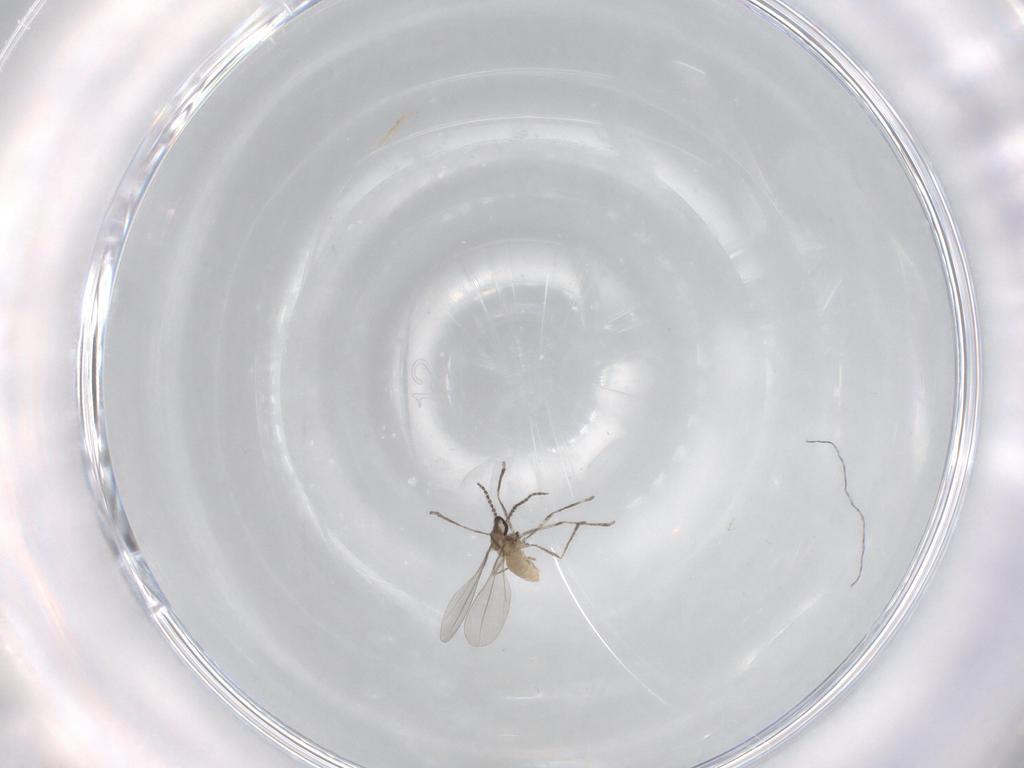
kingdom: Animalia
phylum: Arthropoda
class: Insecta
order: Diptera
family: Cecidomyiidae
